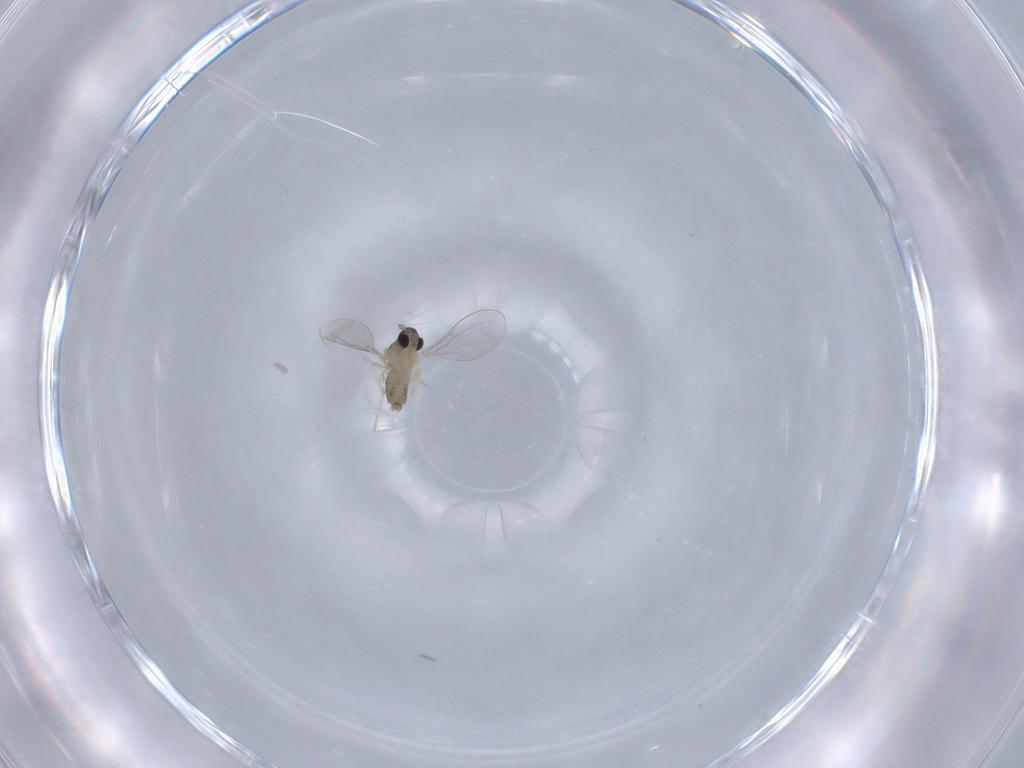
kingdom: Animalia
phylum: Arthropoda
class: Insecta
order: Diptera
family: Cecidomyiidae
